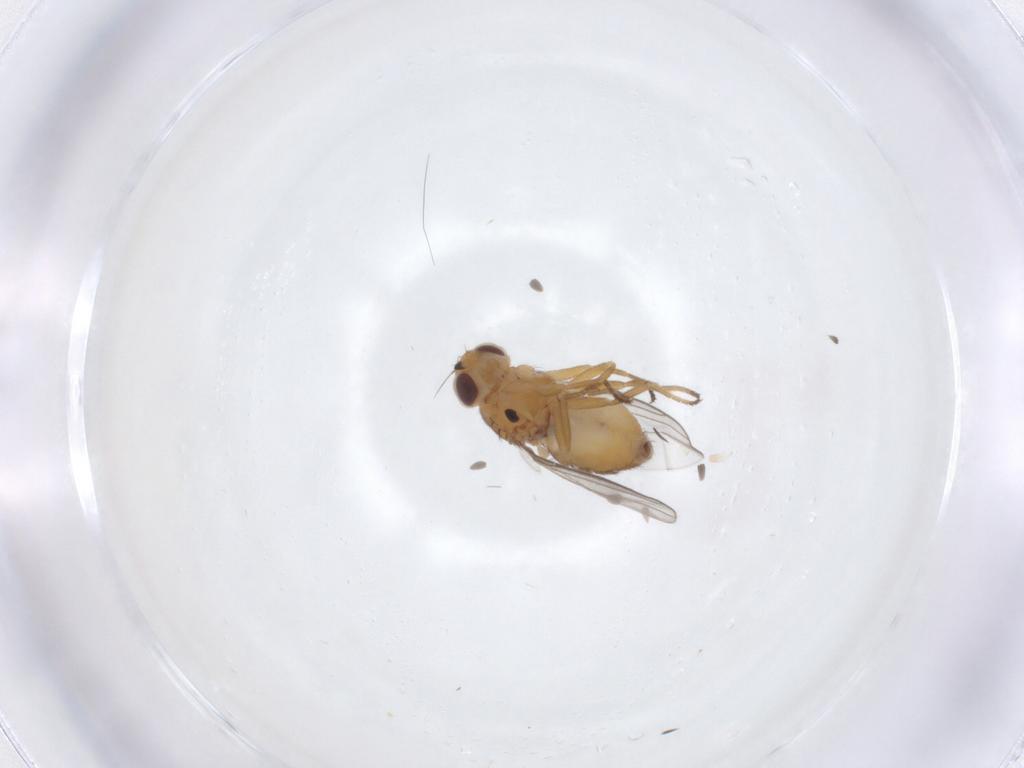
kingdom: Animalia
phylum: Arthropoda
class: Insecta
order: Diptera
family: Chloropidae
